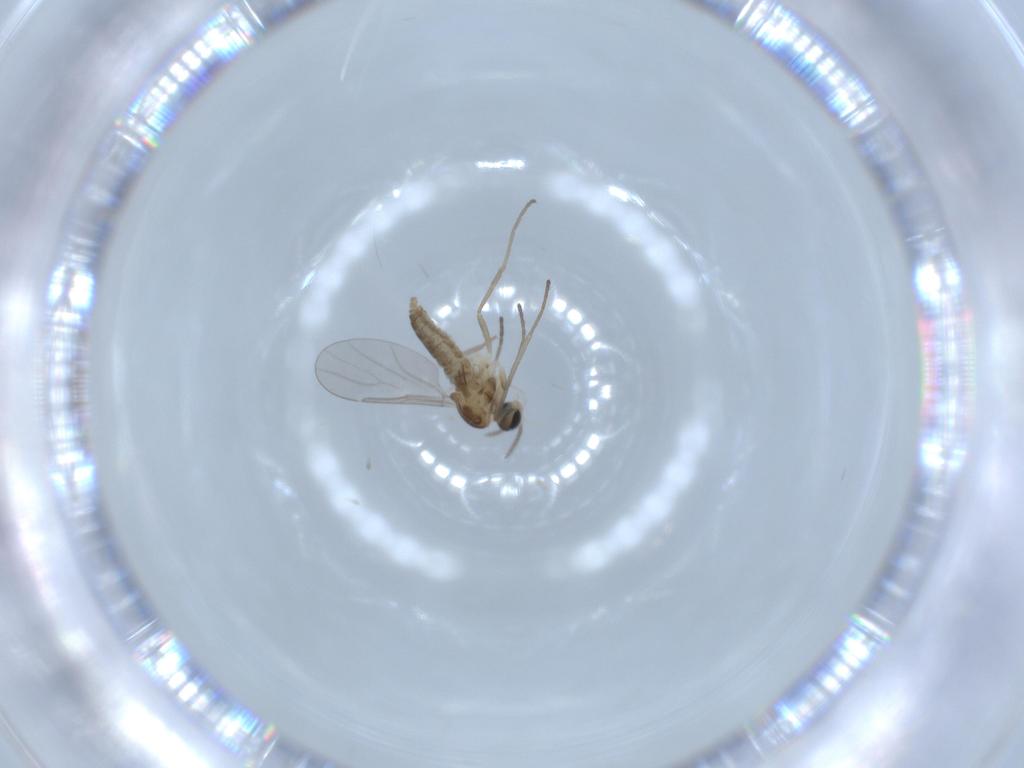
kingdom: Animalia
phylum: Arthropoda
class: Insecta
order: Diptera
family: Cecidomyiidae
